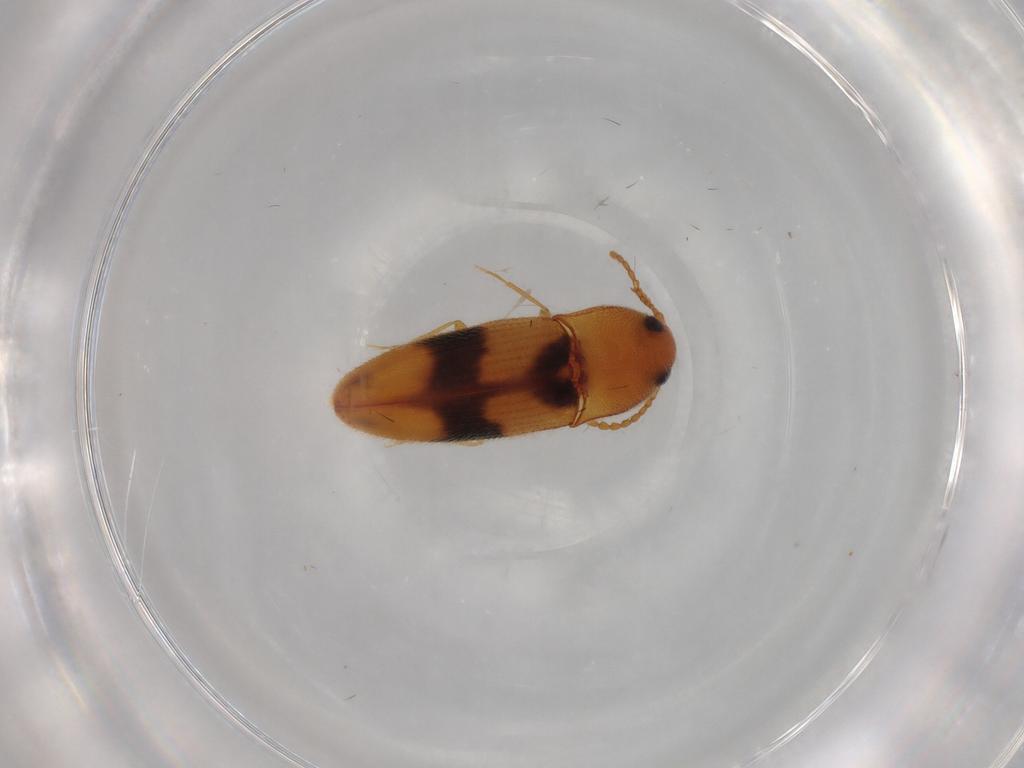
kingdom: Animalia
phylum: Arthropoda
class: Insecta
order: Coleoptera
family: Elateridae
